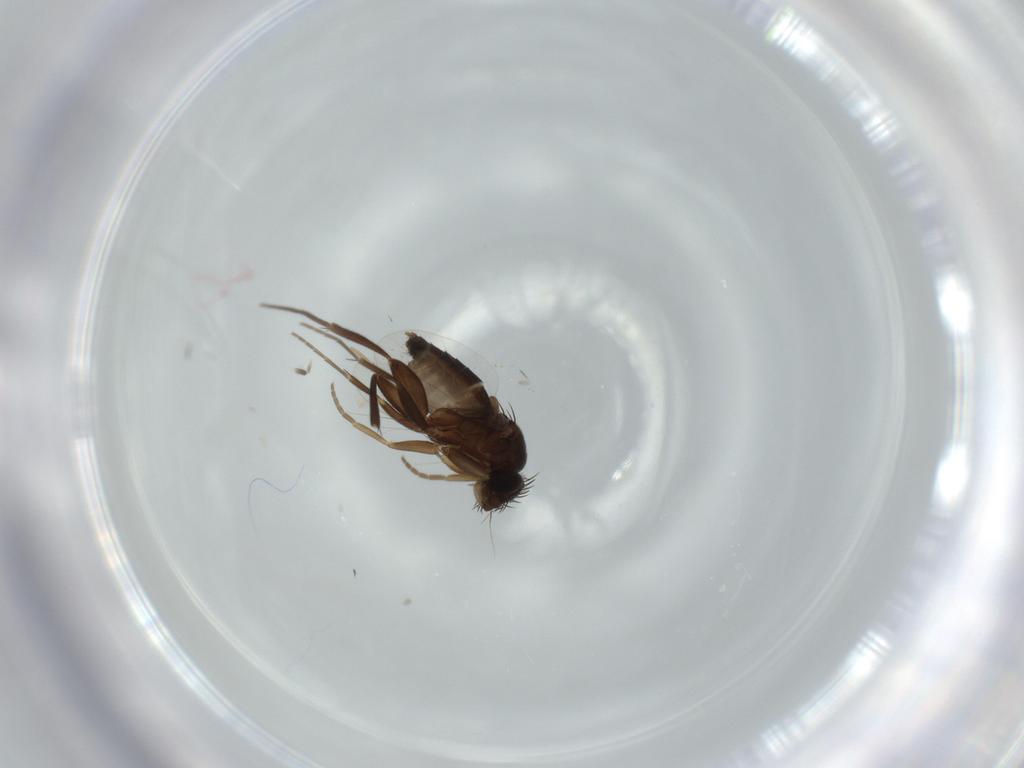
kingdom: Animalia
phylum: Arthropoda
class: Insecta
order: Diptera
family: Phoridae
